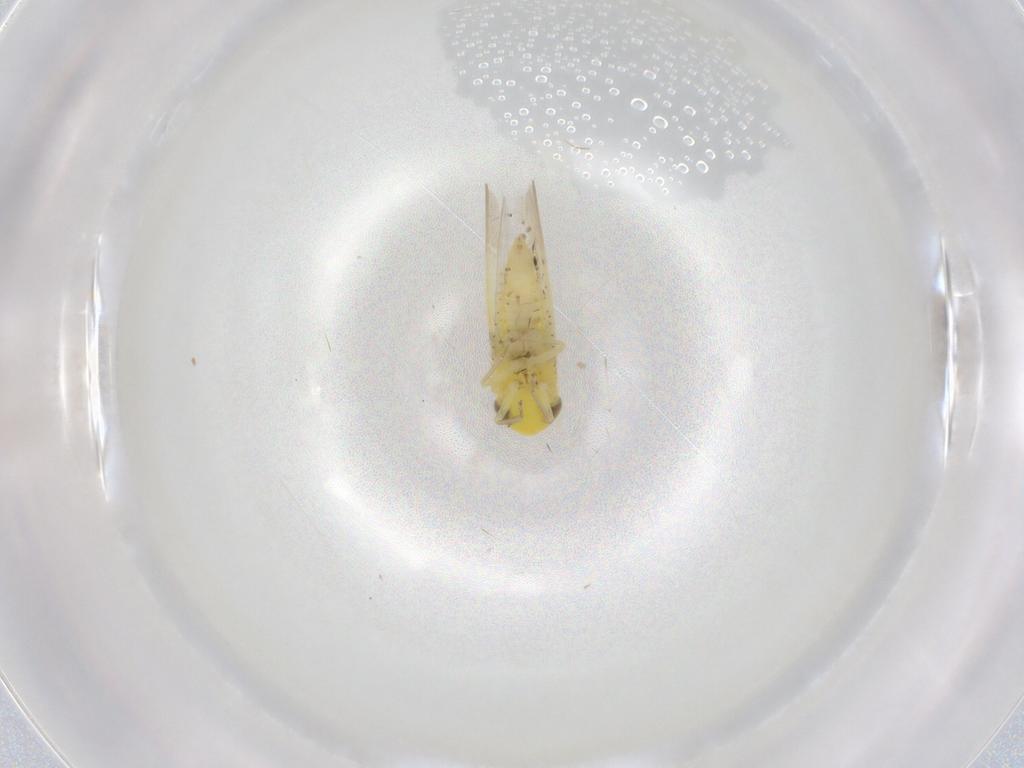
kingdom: Animalia
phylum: Arthropoda
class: Insecta
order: Hemiptera
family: Cicadellidae
